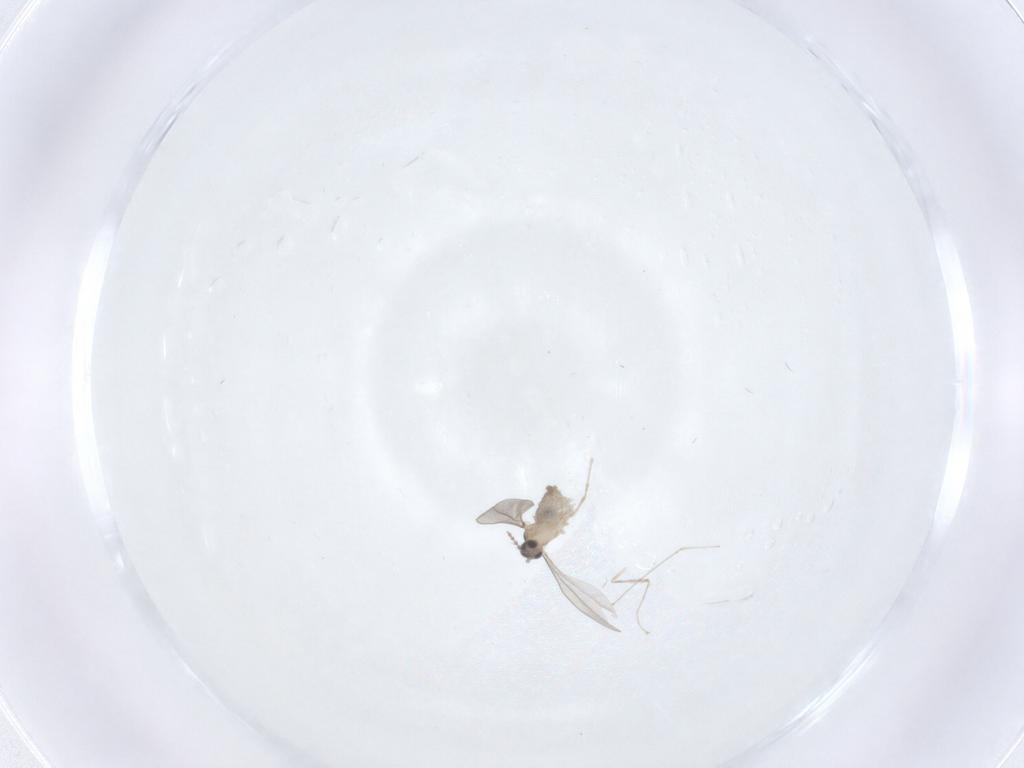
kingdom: Animalia
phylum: Arthropoda
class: Insecta
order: Diptera
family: Cecidomyiidae
